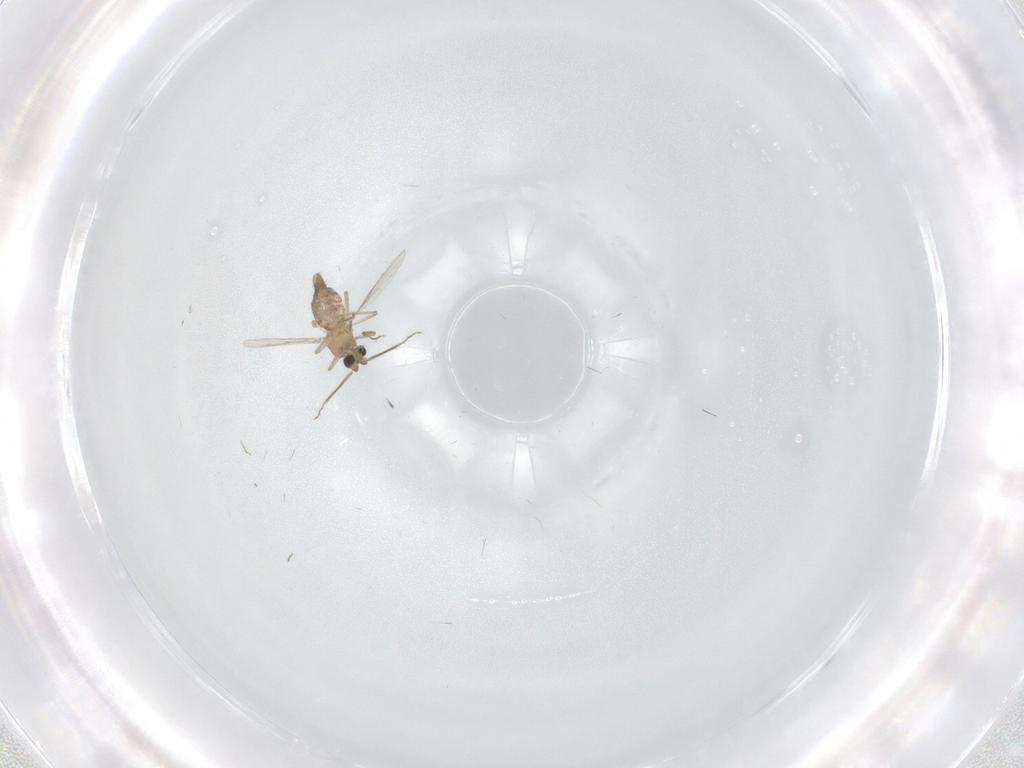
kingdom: Animalia
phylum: Arthropoda
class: Insecta
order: Diptera
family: Ceratopogonidae
